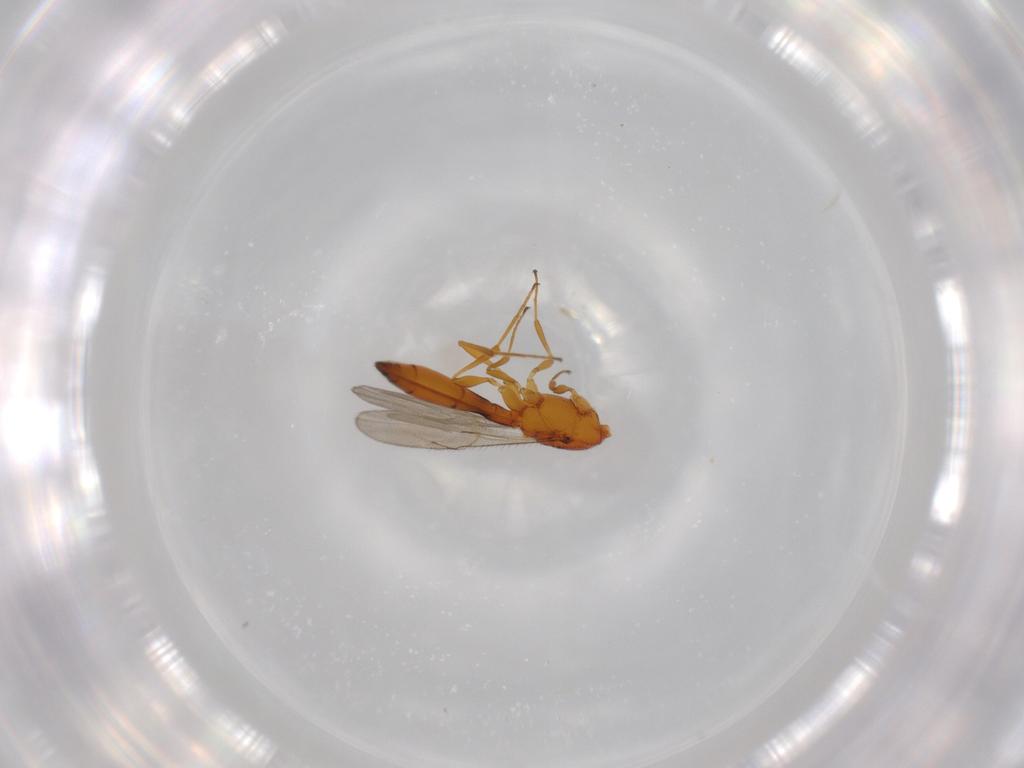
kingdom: Animalia
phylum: Arthropoda
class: Insecta
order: Hymenoptera
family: Scelionidae
